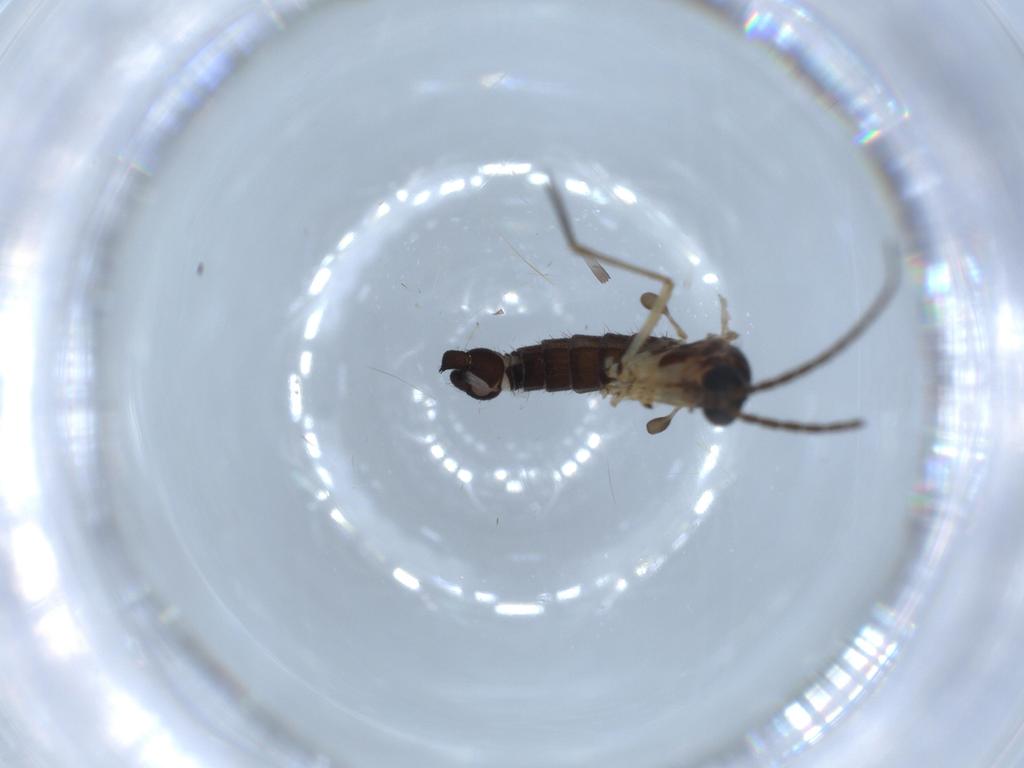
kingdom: Animalia
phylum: Arthropoda
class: Insecta
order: Diptera
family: Sciaridae
